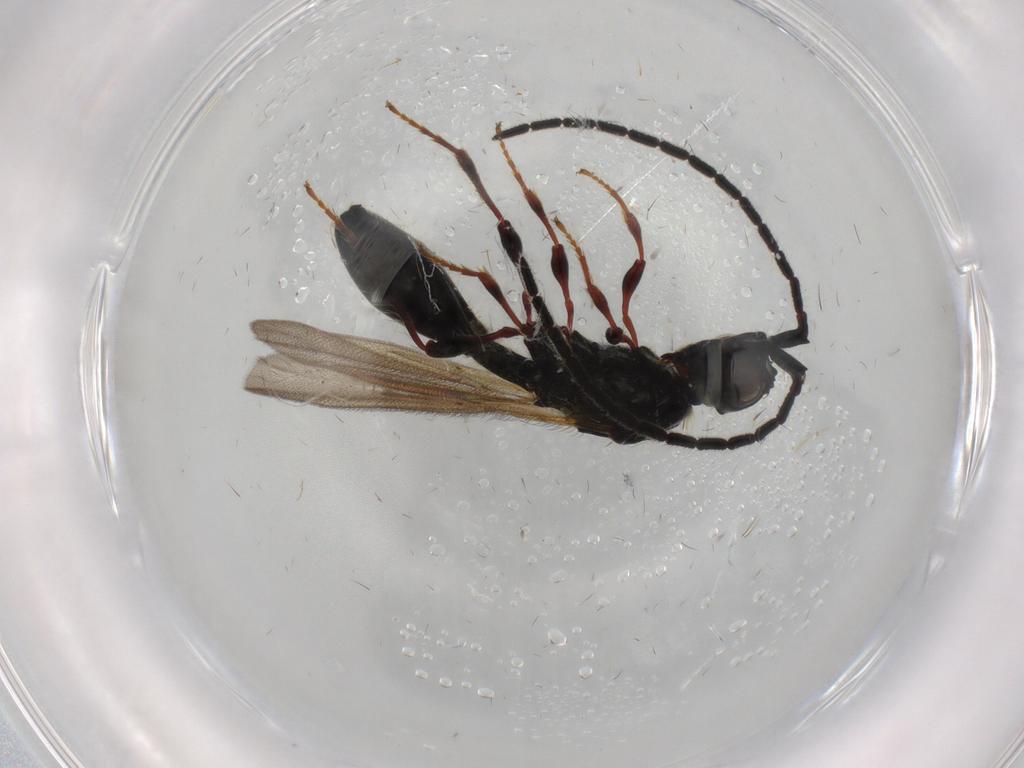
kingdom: Animalia
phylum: Arthropoda
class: Insecta
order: Hymenoptera
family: Diapriidae
